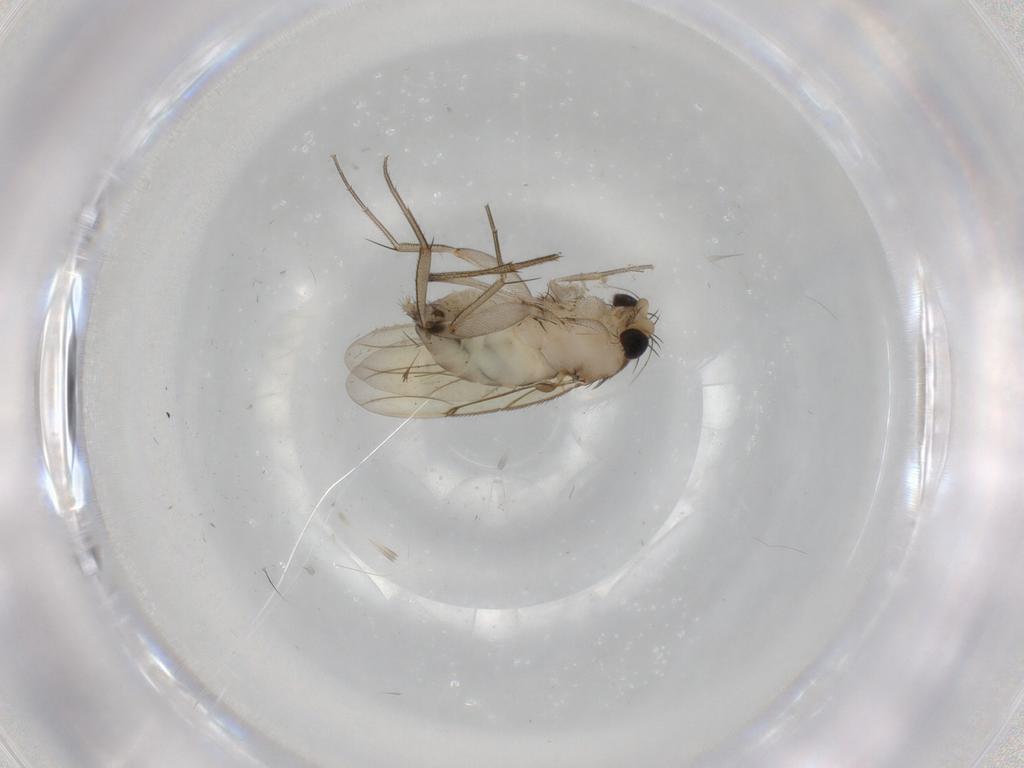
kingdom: Animalia
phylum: Arthropoda
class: Insecta
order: Diptera
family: Phoridae
